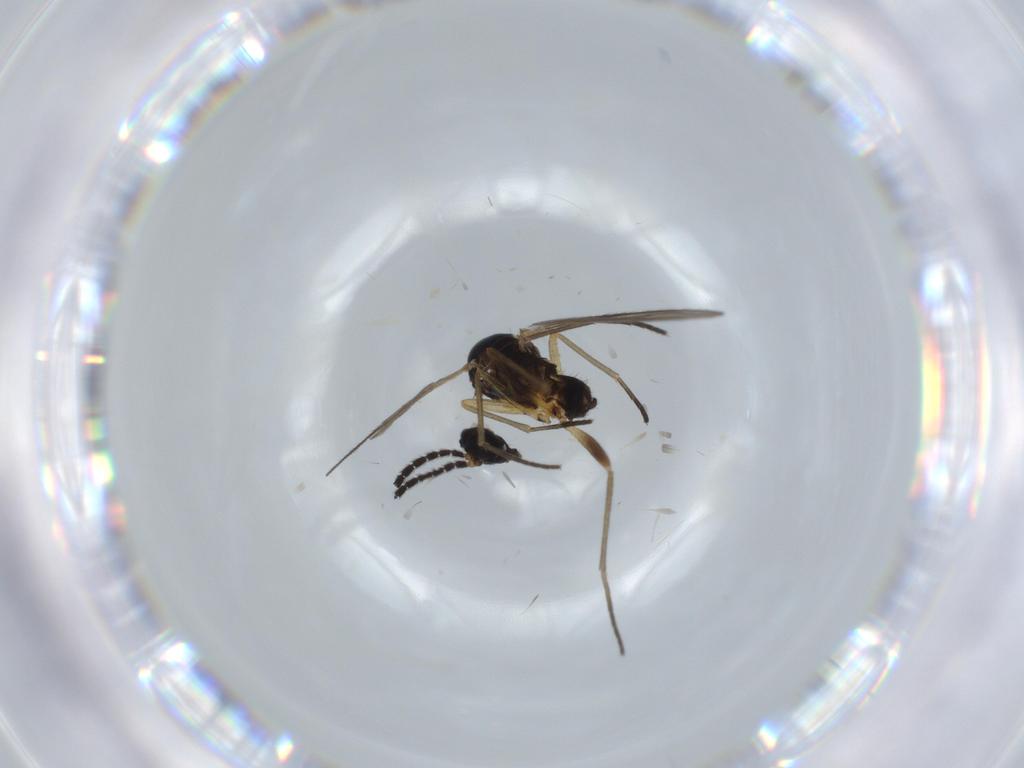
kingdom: Animalia
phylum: Arthropoda
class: Insecta
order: Diptera
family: Sciaridae
